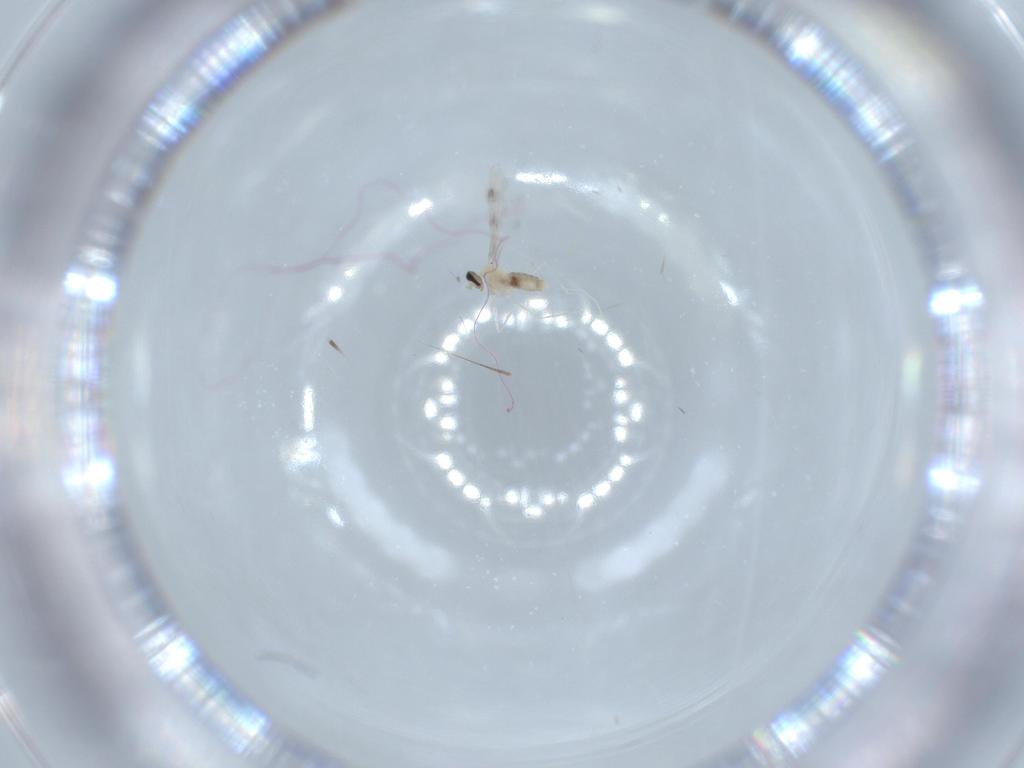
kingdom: Animalia
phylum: Arthropoda
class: Insecta
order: Diptera
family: Cecidomyiidae
